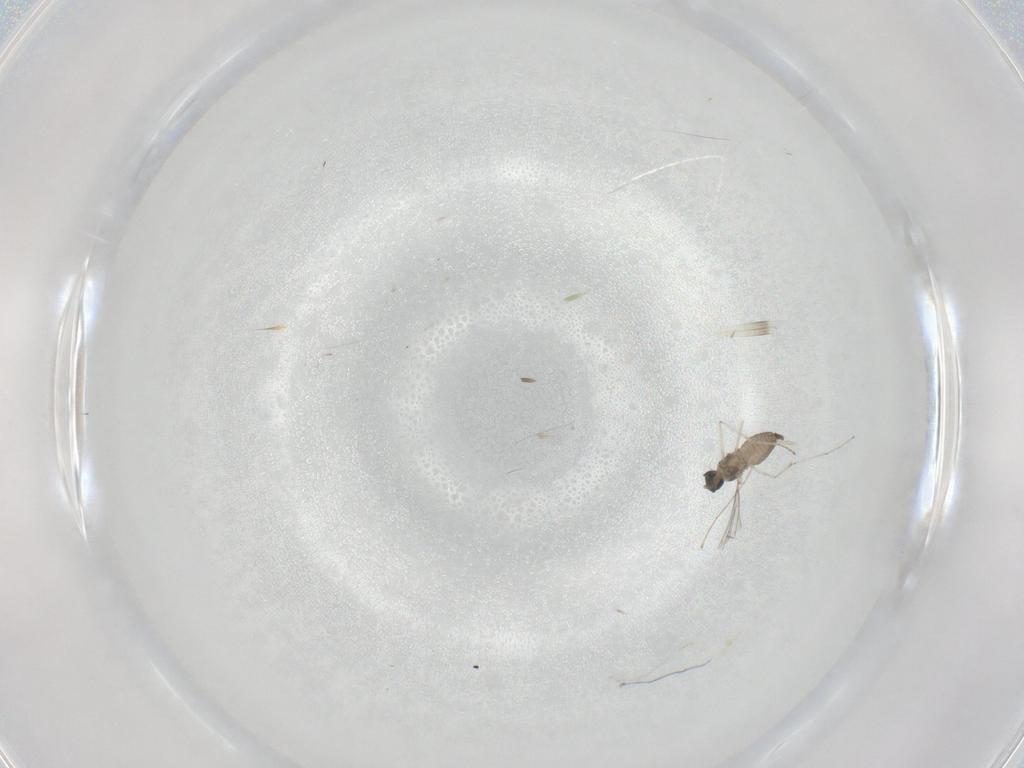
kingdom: Animalia
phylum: Arthropoda
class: Insecta
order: Diptera
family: Cecidomyiidae
